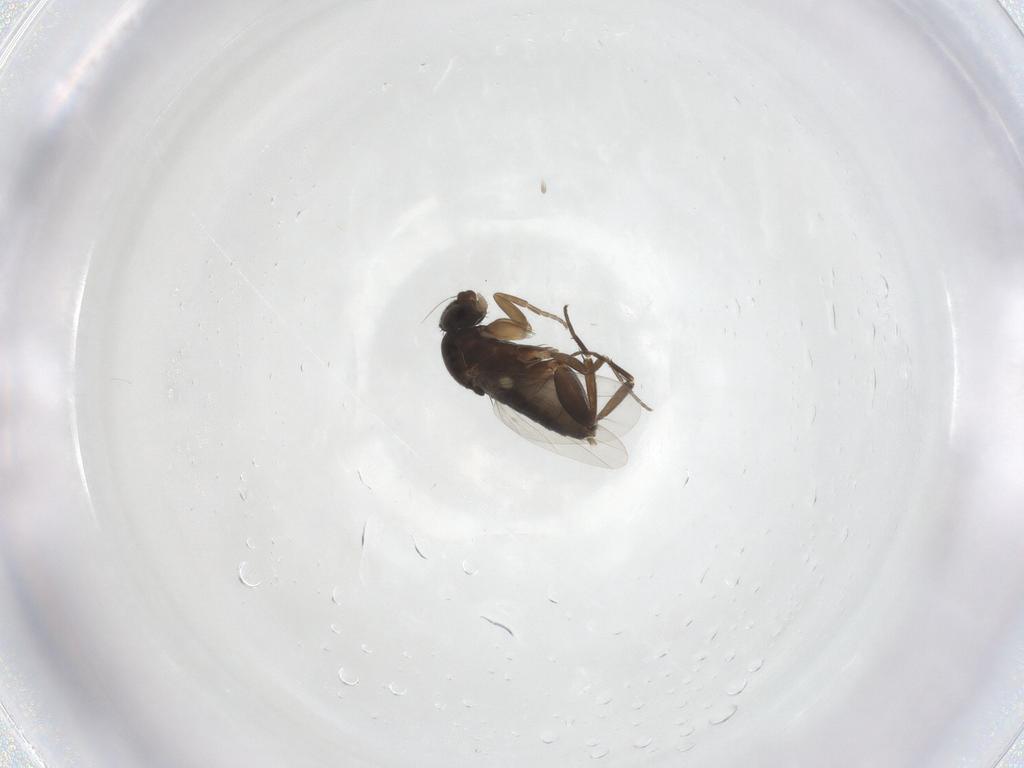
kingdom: Animalia
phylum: Arthropoda
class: Insecta
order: Diptera
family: Phoridae
